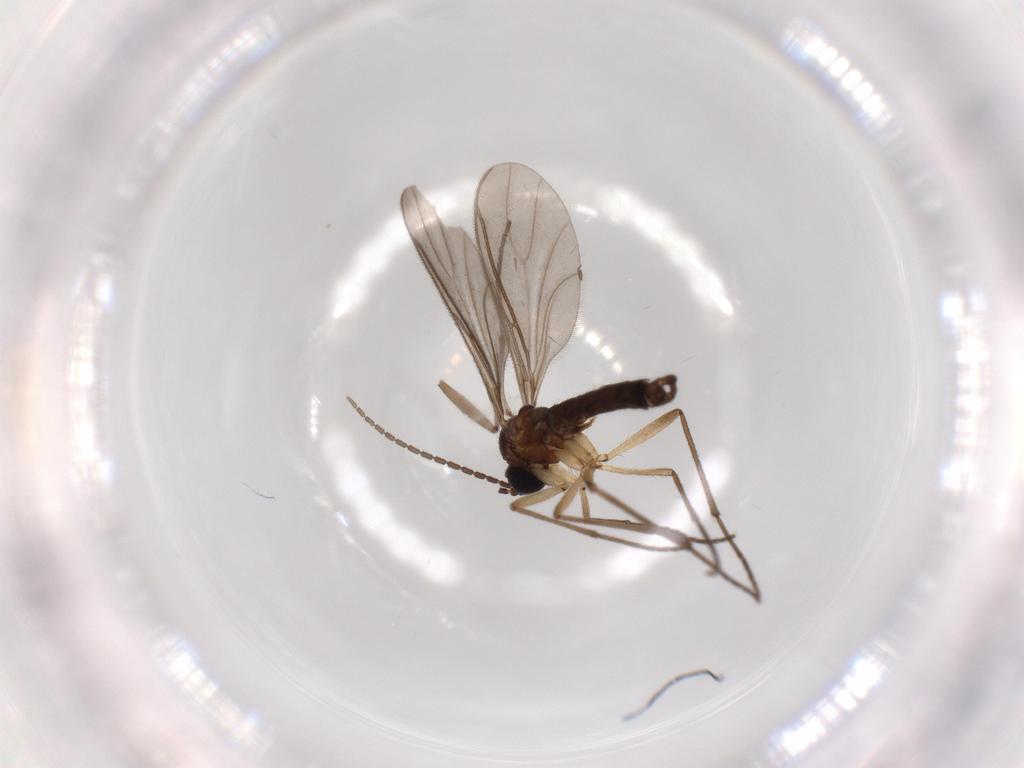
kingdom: Animalia
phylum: Arthropoda
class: Insecta
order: Diptera
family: Sciaridae
